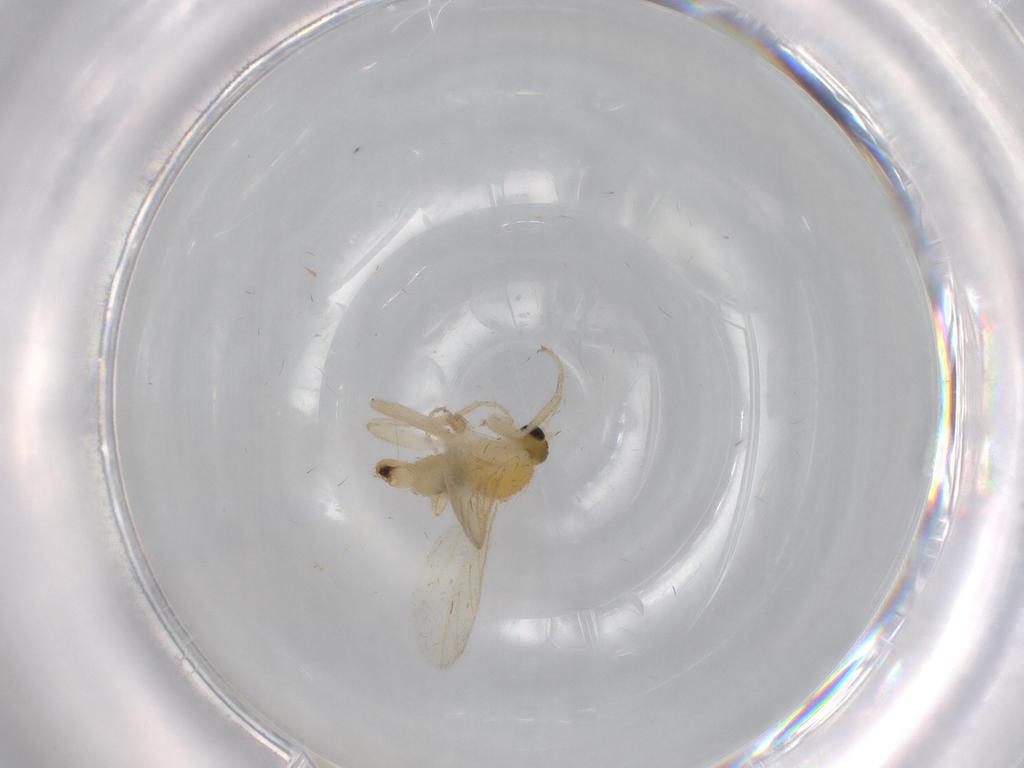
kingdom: Animalia
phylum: Arthropoda
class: Insecta
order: Diptera
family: Hybotidae
